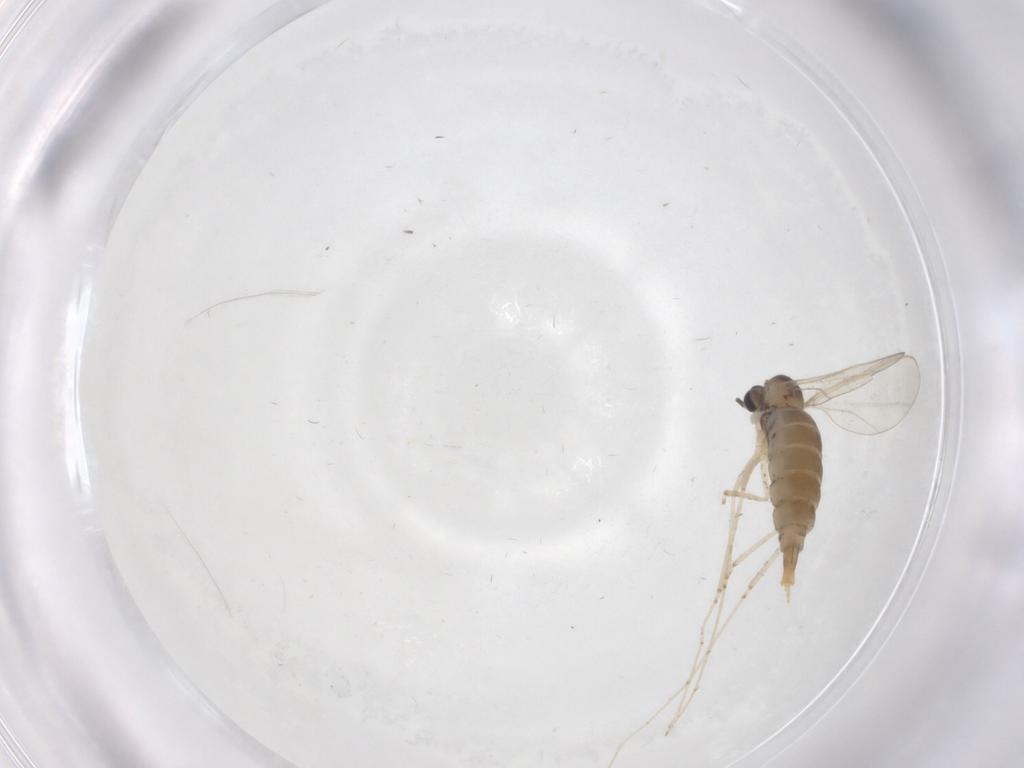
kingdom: Animalia
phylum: Arthropoda
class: Insecta
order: Diptera
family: Cecidomyiidae
